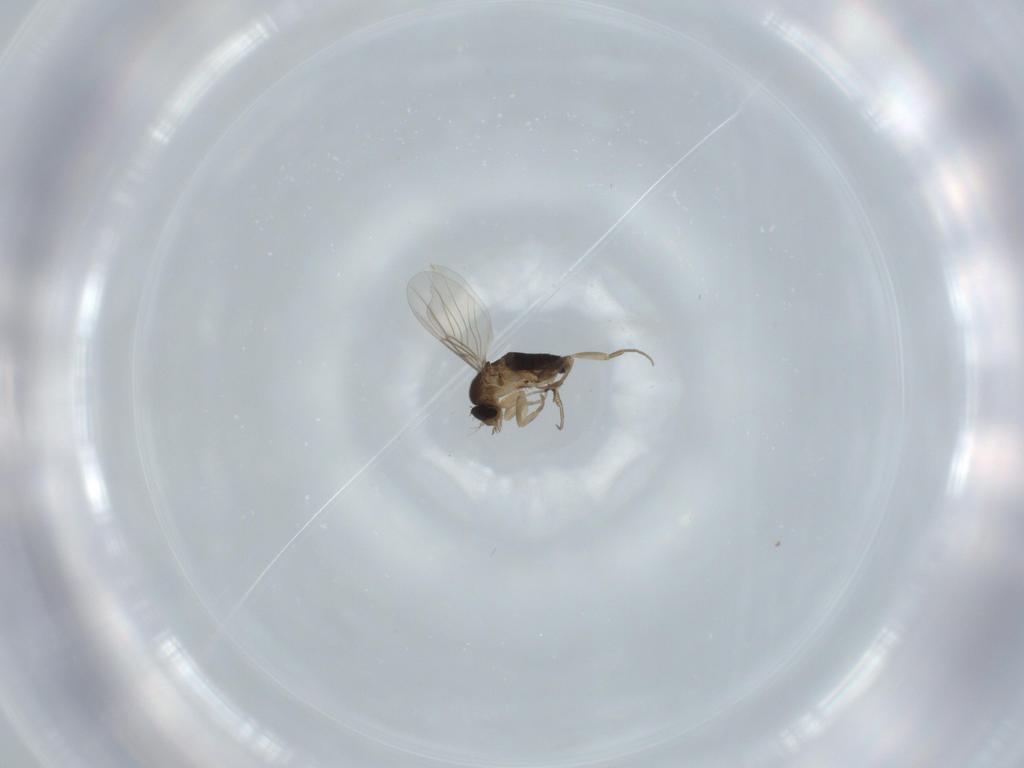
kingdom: Animalia
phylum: Arthropoda
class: Insecta
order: Diptera
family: Phoridae
